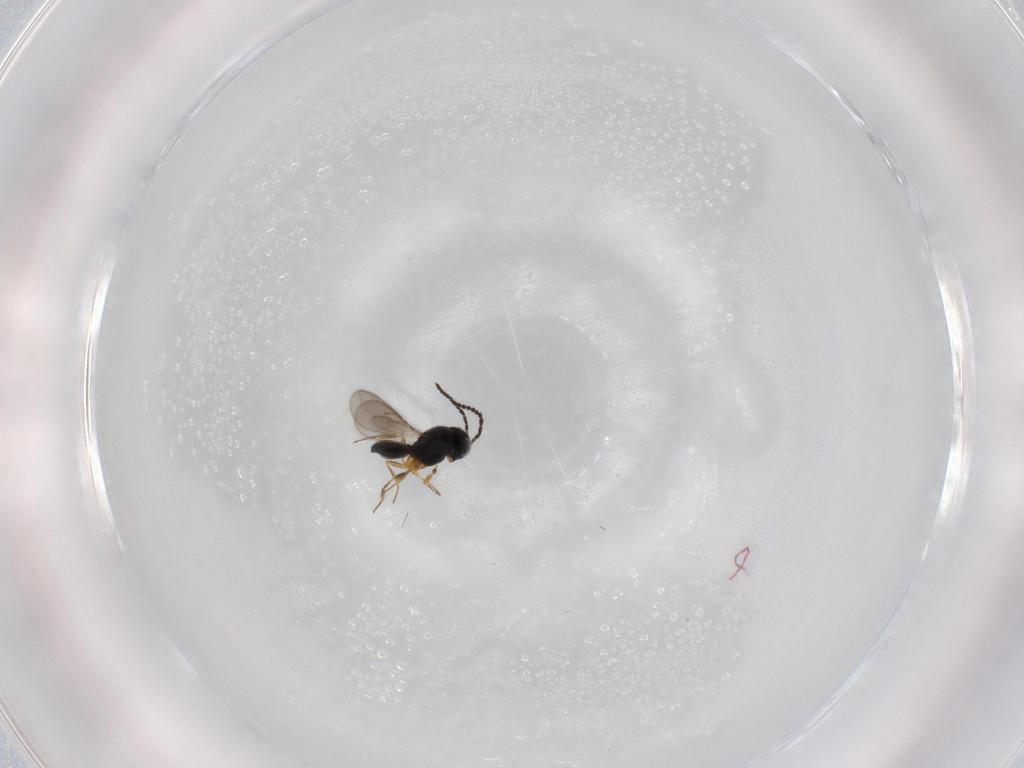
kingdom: Animalia
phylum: Arthropoda
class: Insecta
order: Hymenoptera
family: Scelionidae
